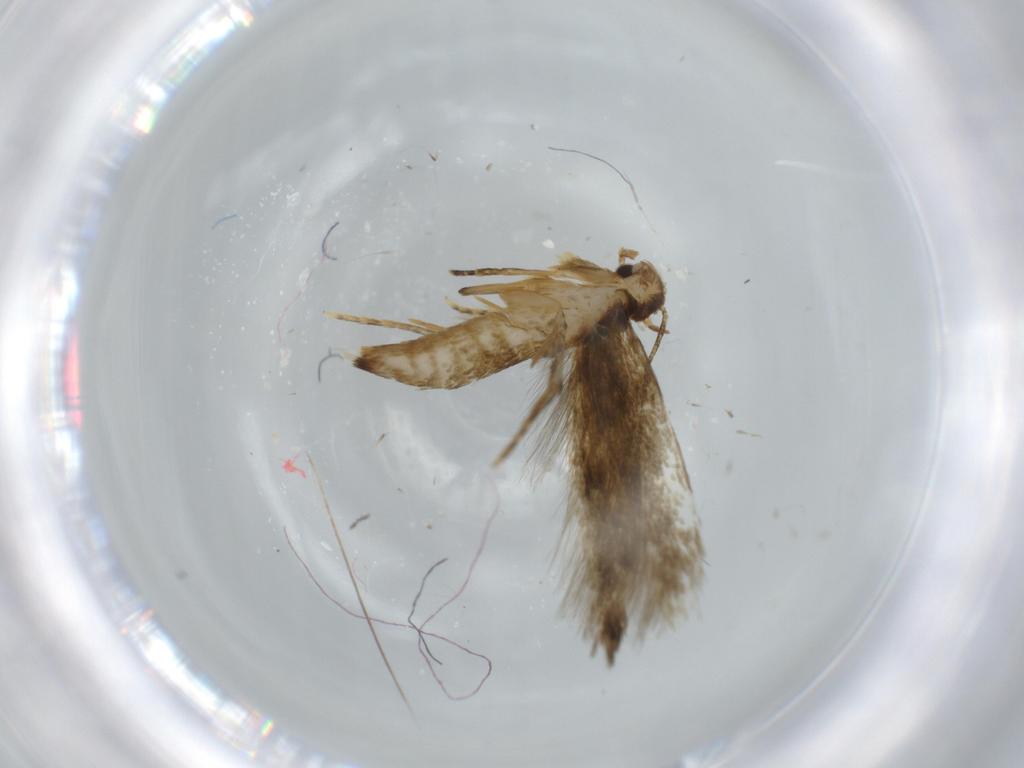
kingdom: Animalia
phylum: Arthropoda
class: Insecta
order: Lepidoptera
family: Tineidae
